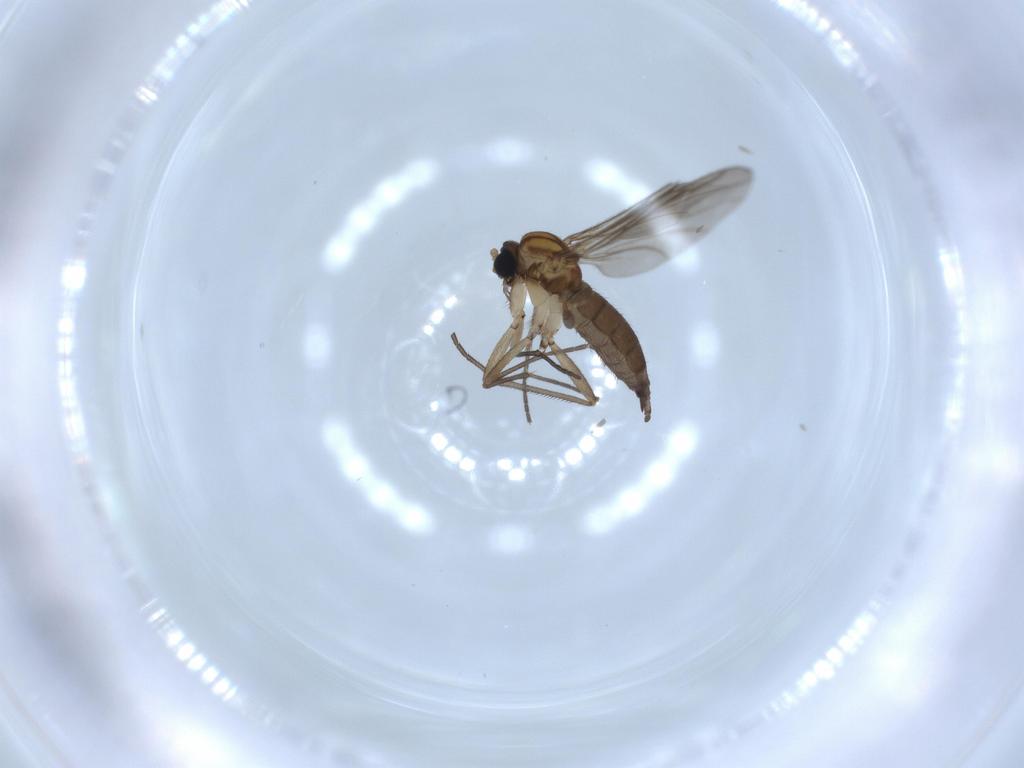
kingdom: Animalia
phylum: Arthropoda
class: Insecta
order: Diptera
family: Sciaridae
